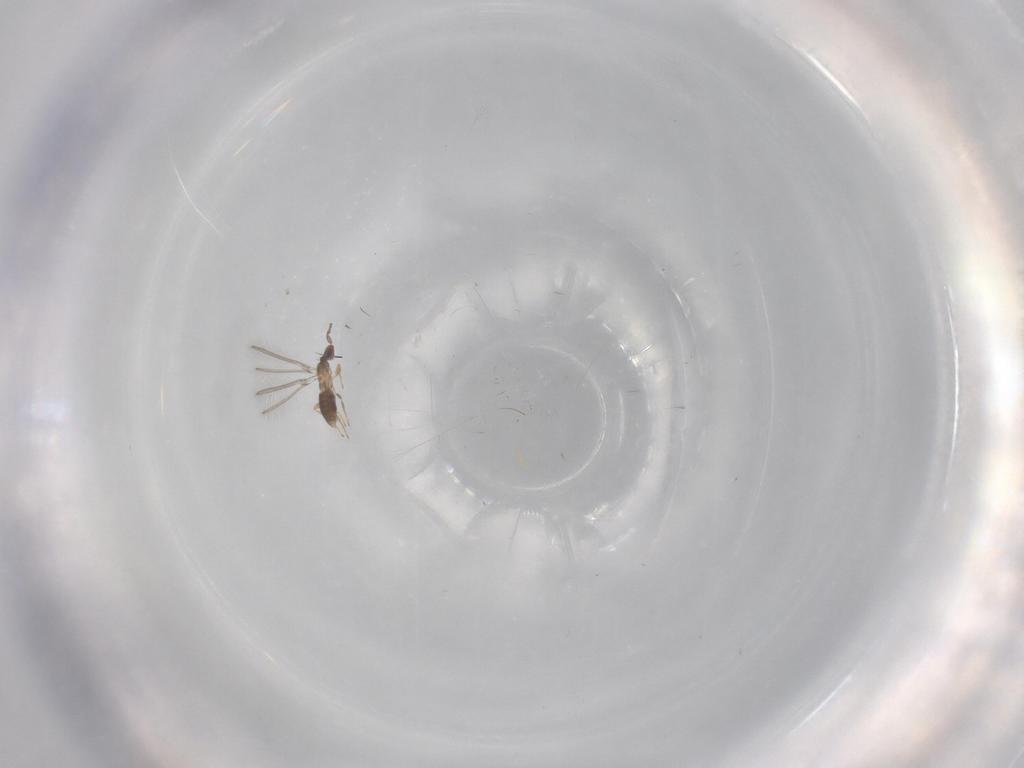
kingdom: Animalia
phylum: Arthropoda
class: Insecta
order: Hymenoptera
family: Mymaridae
